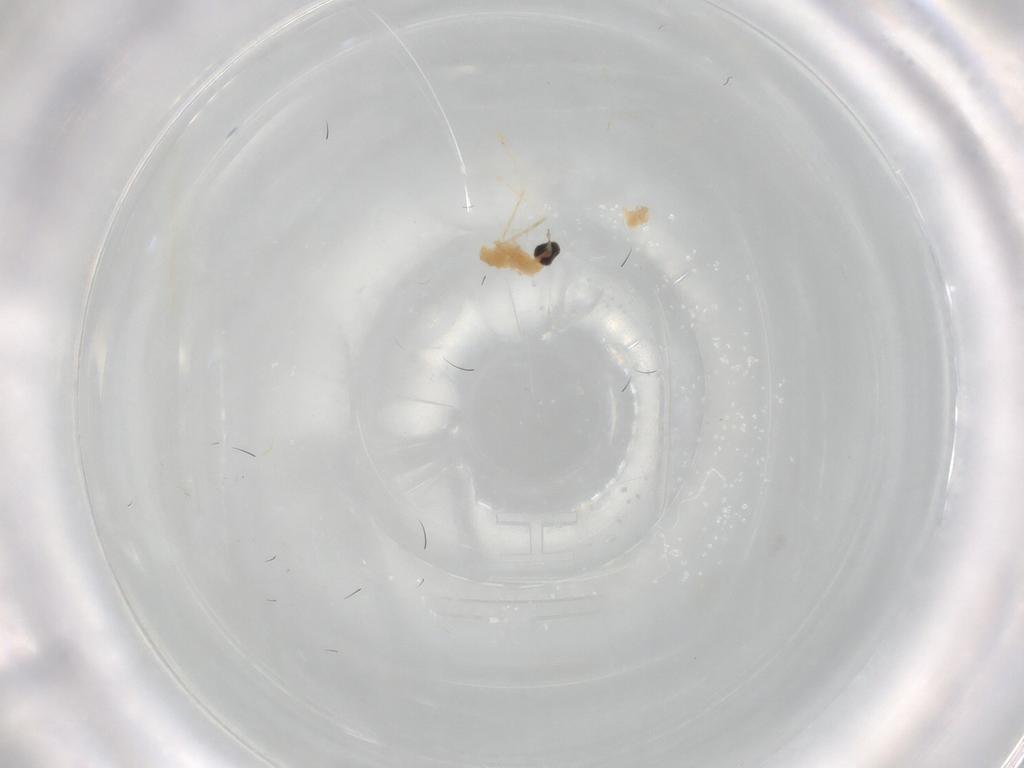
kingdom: Animalia
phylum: Arthropoda
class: Insecta
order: Diptera
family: Cecidomyiidae
